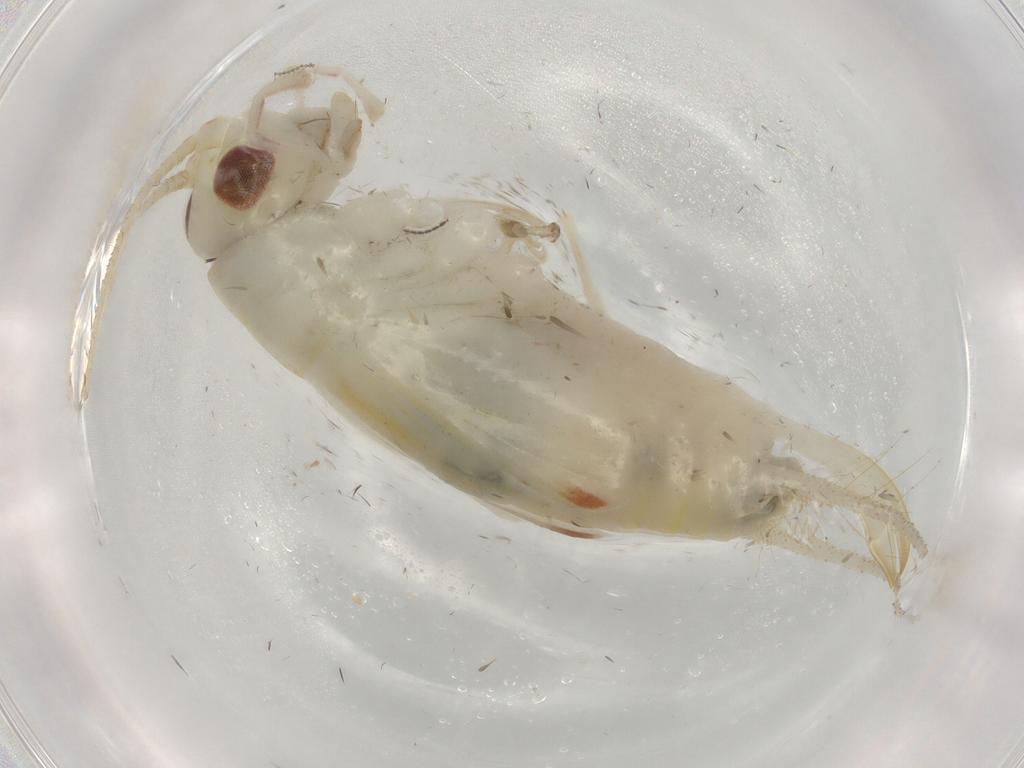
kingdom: Animalia
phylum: Arthropoda
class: Insecta
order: Orthoptera
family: Trigonidiidae
